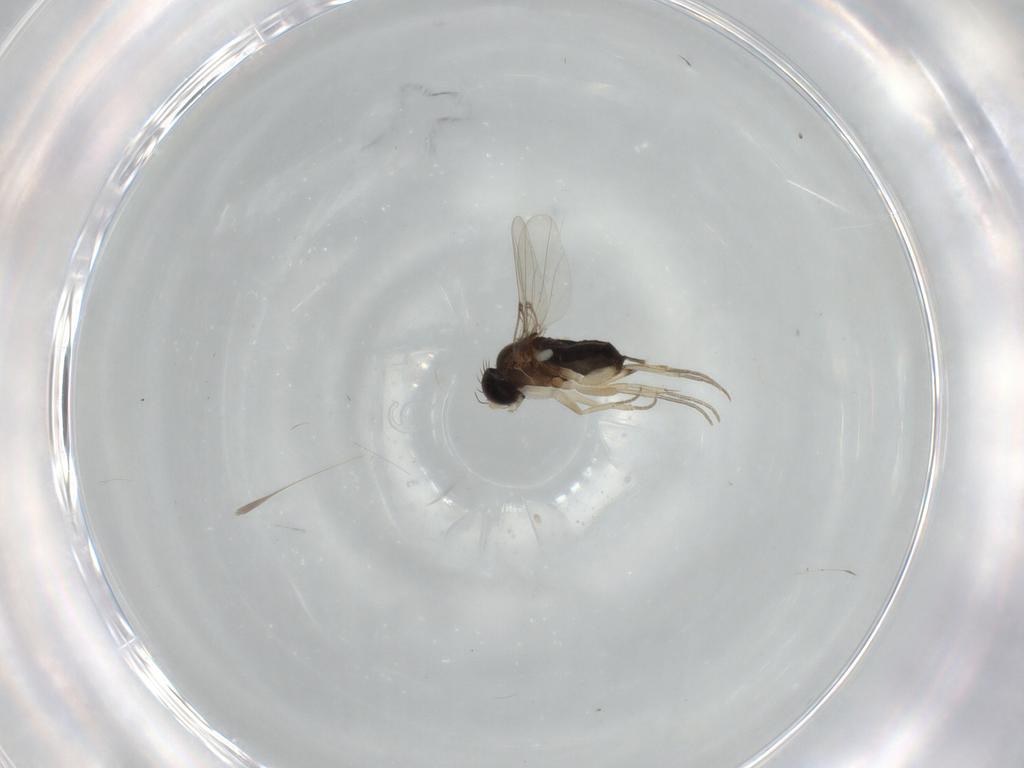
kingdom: Animalia
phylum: Arthropoda
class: Insecta
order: Diptera
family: Phoridae
